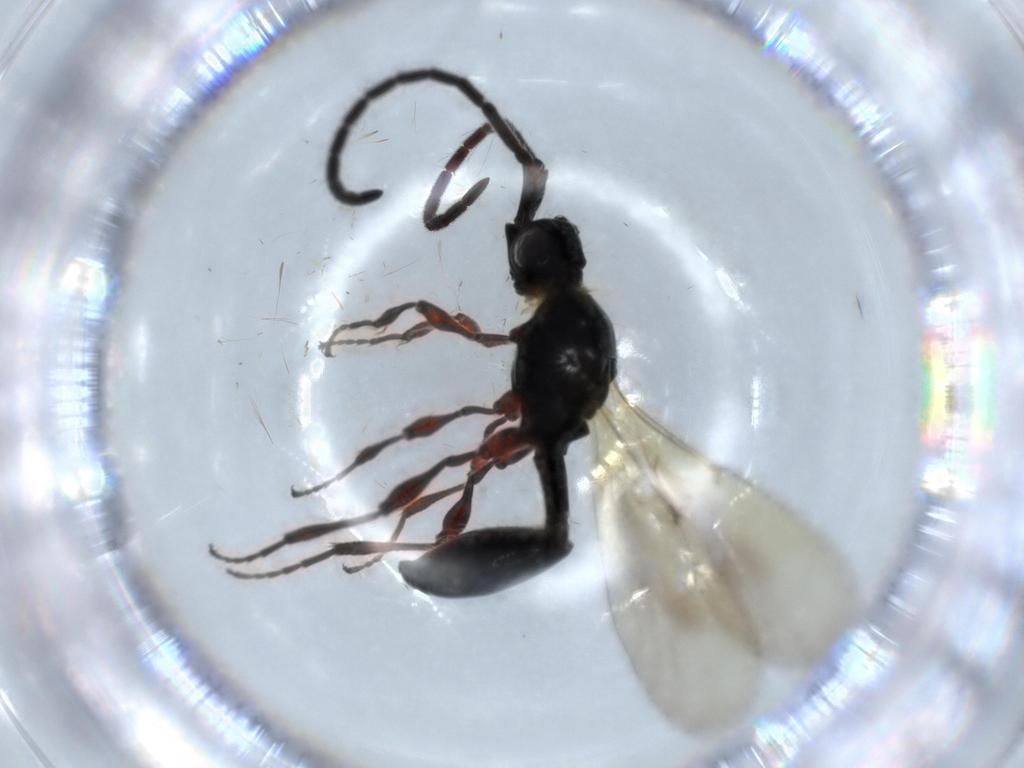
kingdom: Animalia
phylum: Arthropoda
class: Insecta
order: Hymenoptera
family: Diapriidae
